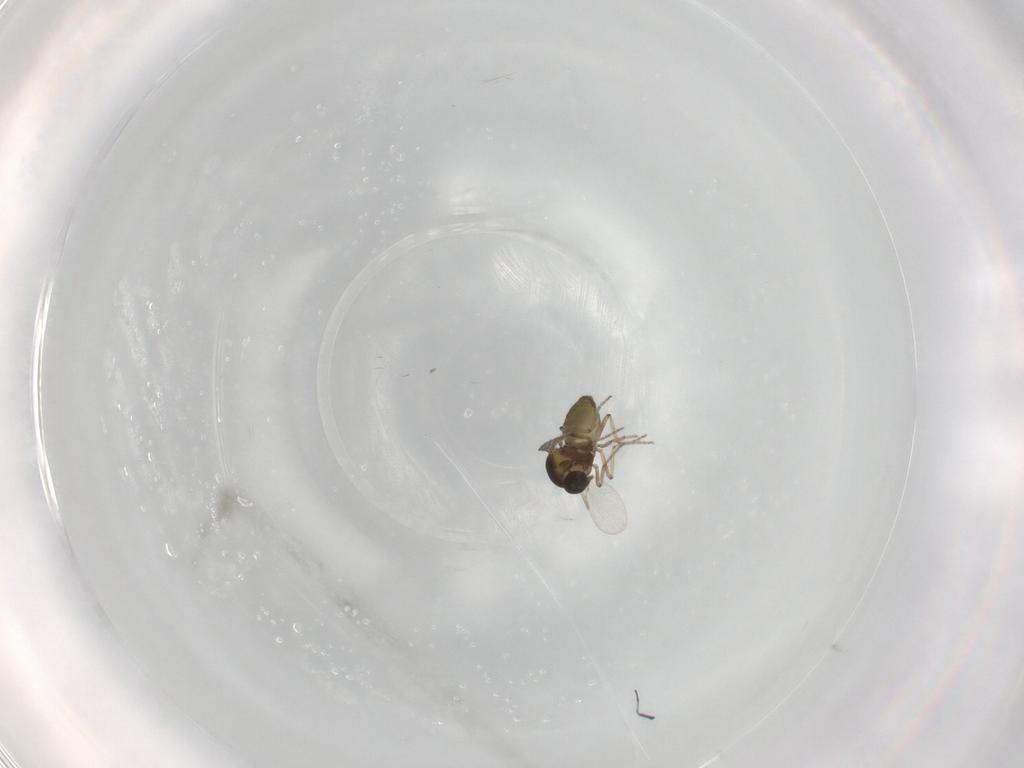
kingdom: Animalia
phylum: Arthropoda
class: Insecta
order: Diptera
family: Ceratopogonidae
